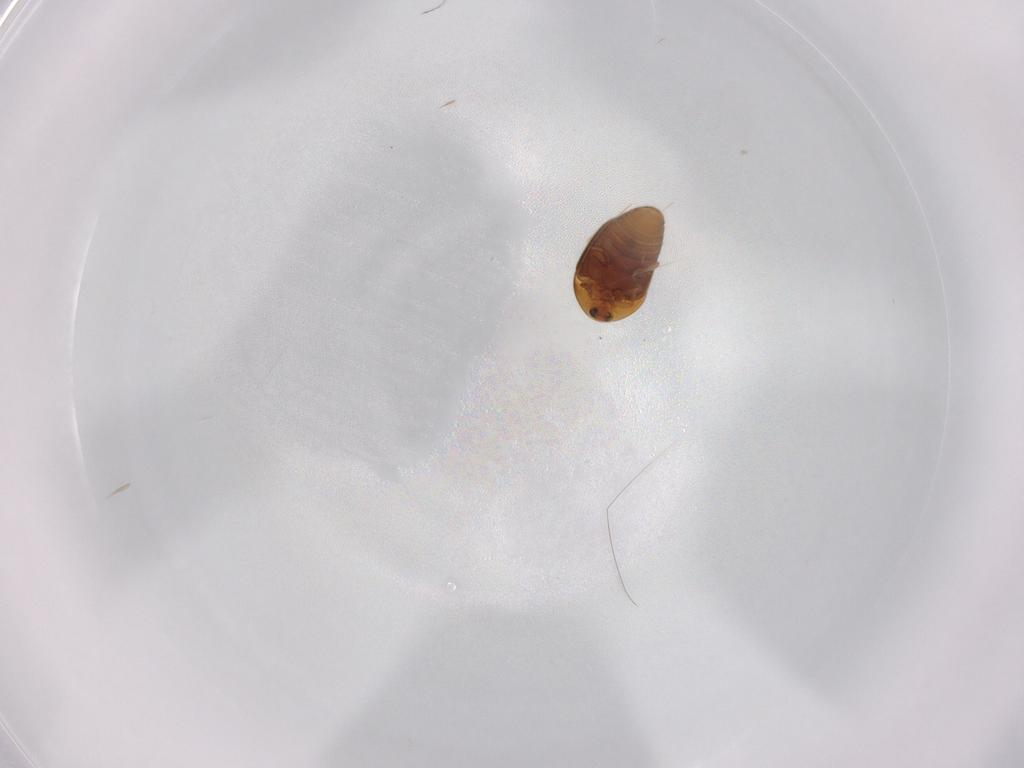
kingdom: Animalia
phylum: Arthropoda
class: Insecta
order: Coleoptera
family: Corylophidae
